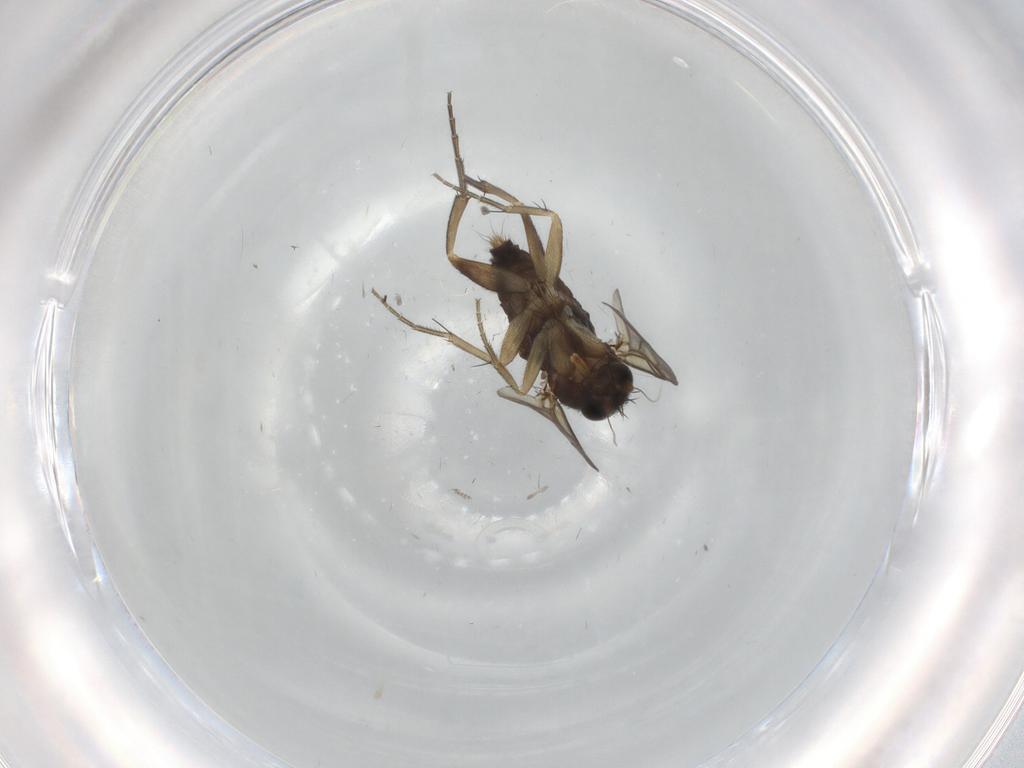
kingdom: Animalia
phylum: Arthropoda
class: Insecta
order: Diptera
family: Phoridae
